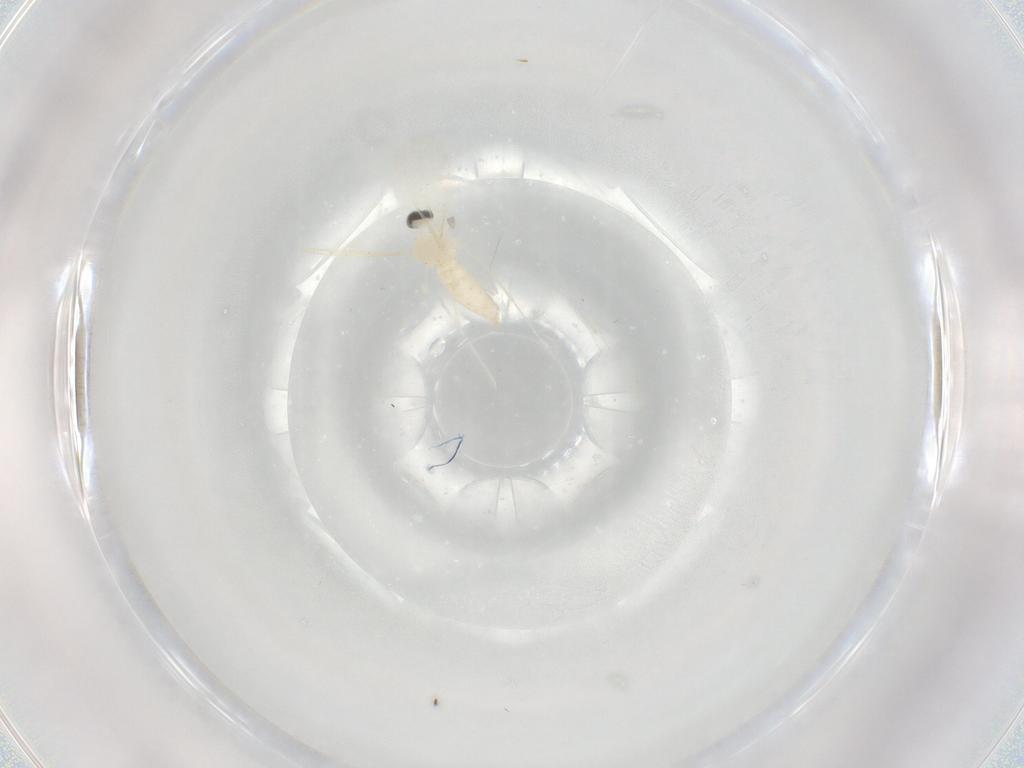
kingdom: Animalia
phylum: Arthropoda
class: Insecta
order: Diptera
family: Cecidomyiidae
